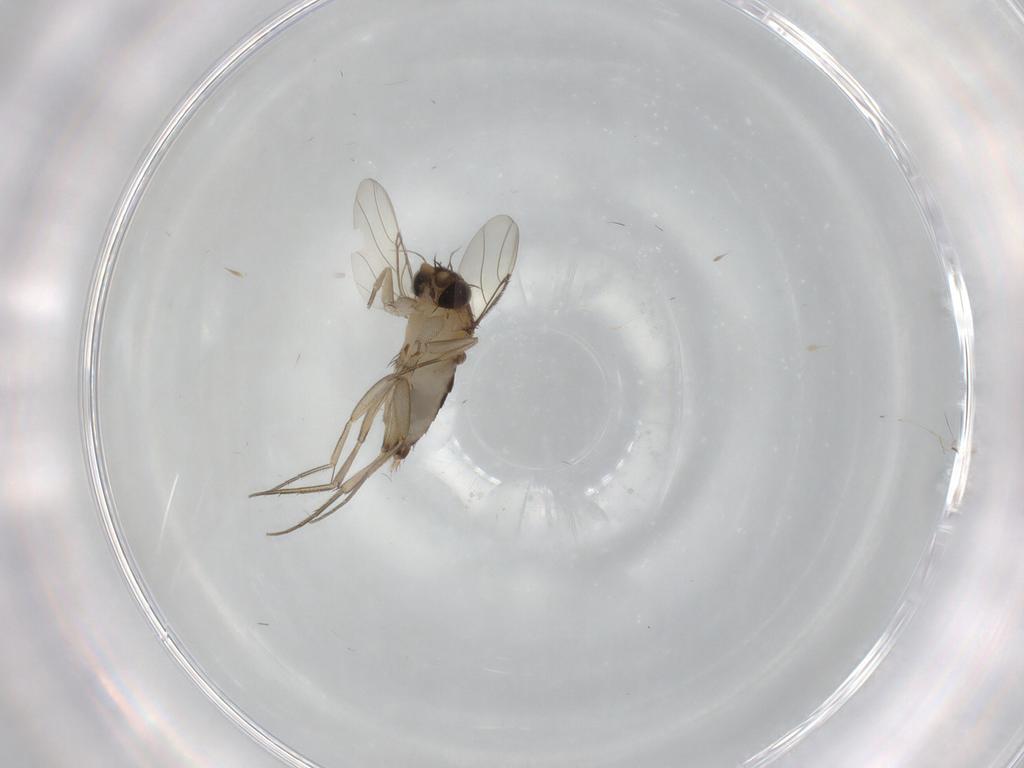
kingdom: Animalia
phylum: Arthropoda
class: Insecta
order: Diptera
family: Phoridae
